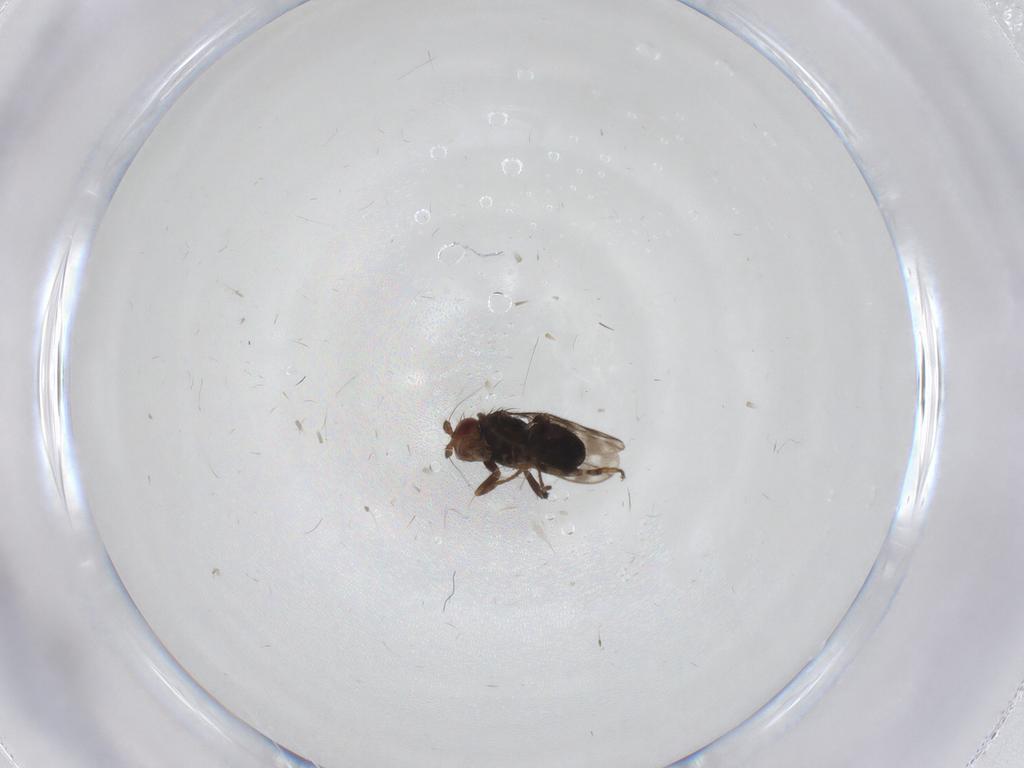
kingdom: Animalia
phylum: Arthropoda
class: Insecta
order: Diptera
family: Sphaeroceridae
